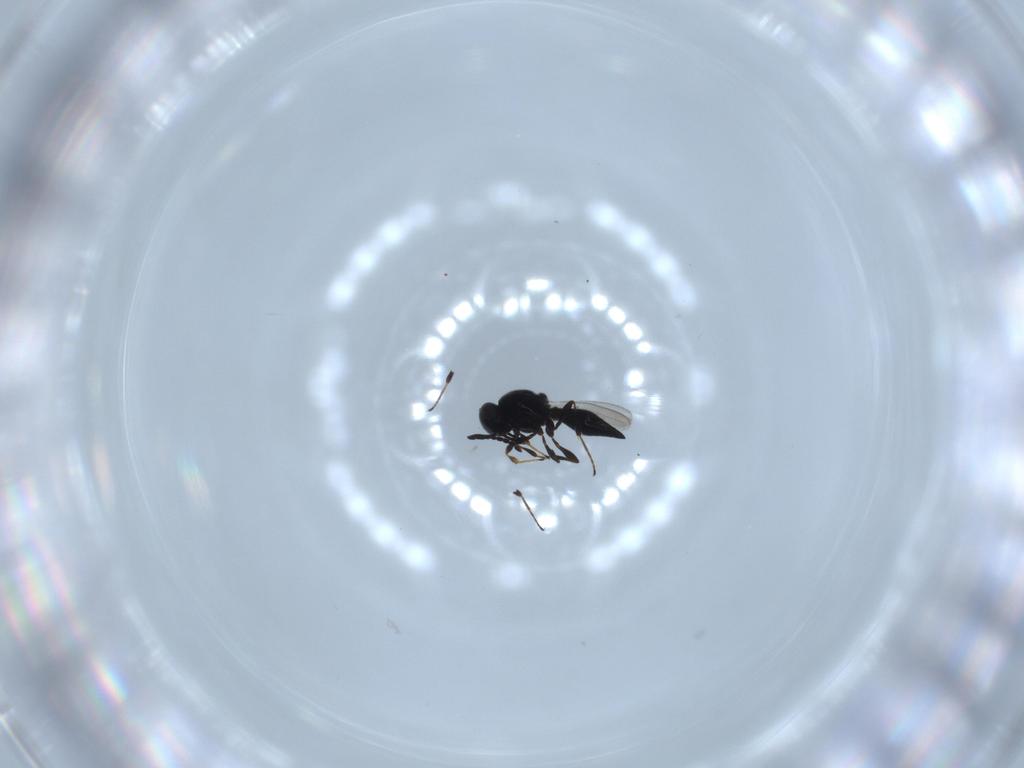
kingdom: Animalia
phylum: Arthropoda
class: Insecta
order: Diptera
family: Mythicomyiidae
